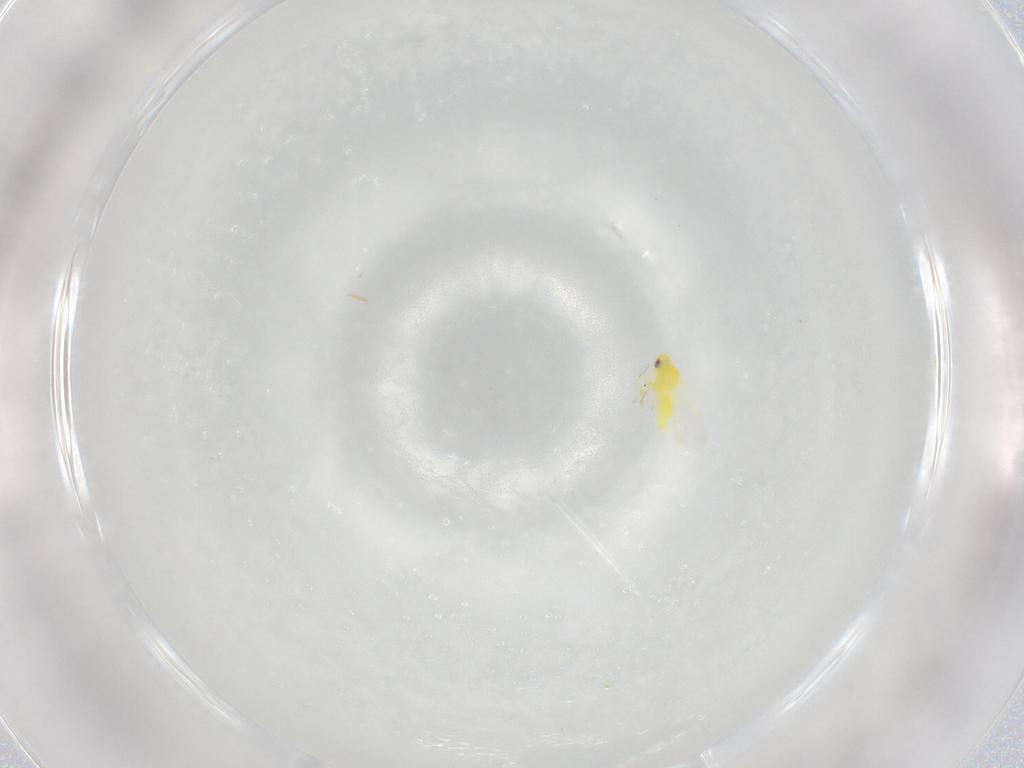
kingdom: Animalia
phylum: Arthropoda
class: Insecta
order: Hemiptera
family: Aleyrodidae
